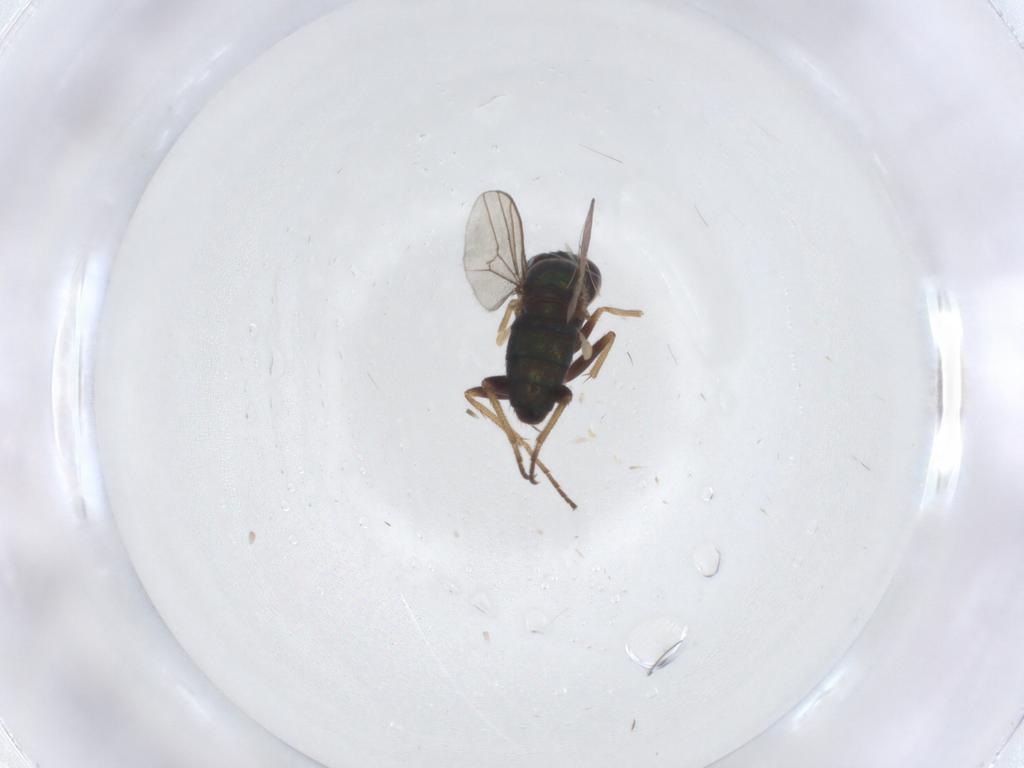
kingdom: Animalia
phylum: Arthropoda
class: Insecta
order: Diptera
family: Dolichopodidae
